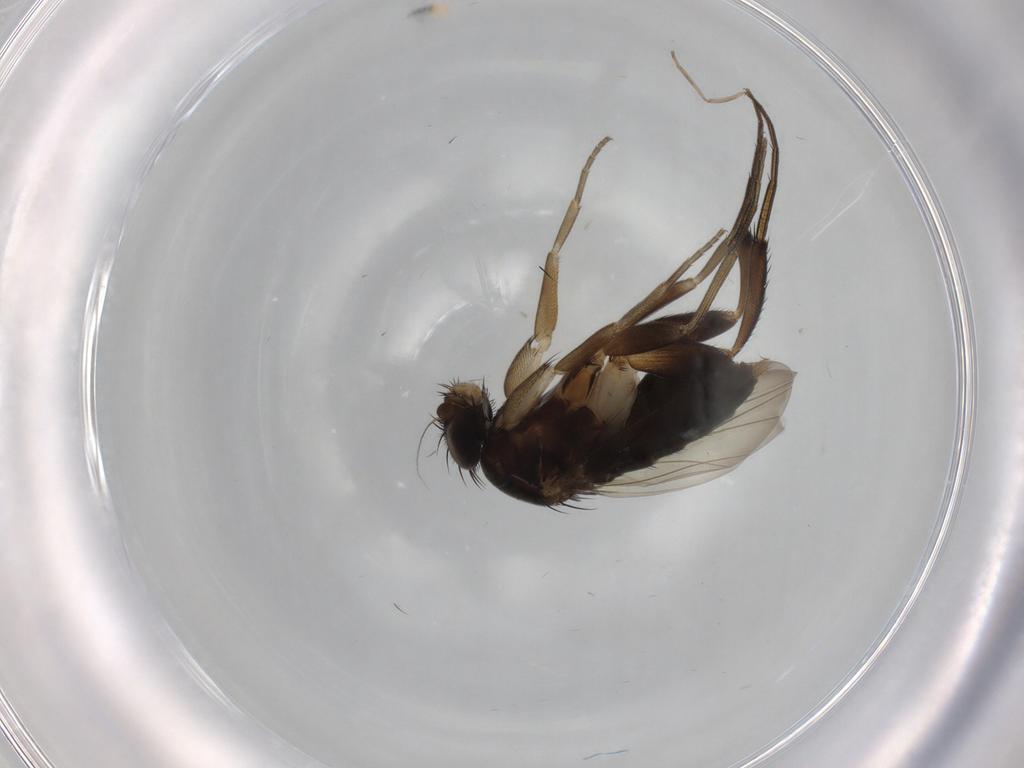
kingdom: Animalia
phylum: Arthropoda
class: Insecta
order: Diptera
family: Phoridae
